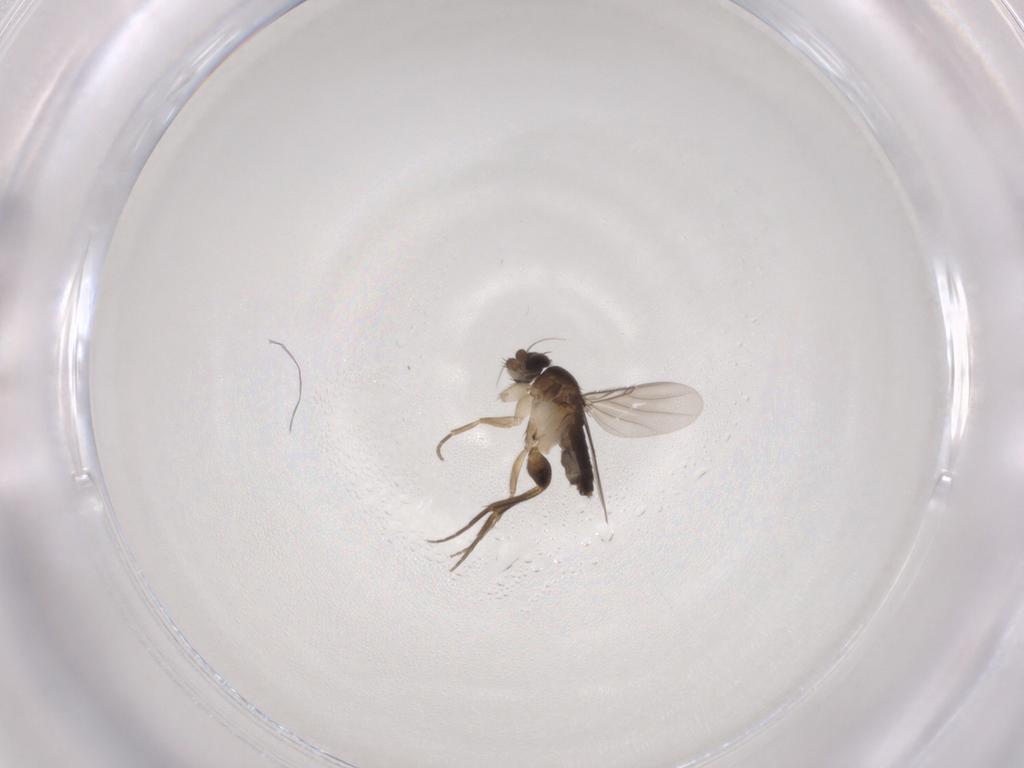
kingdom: Animalia
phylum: Arthropoda
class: Insecta
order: Diptera
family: Phoridae
